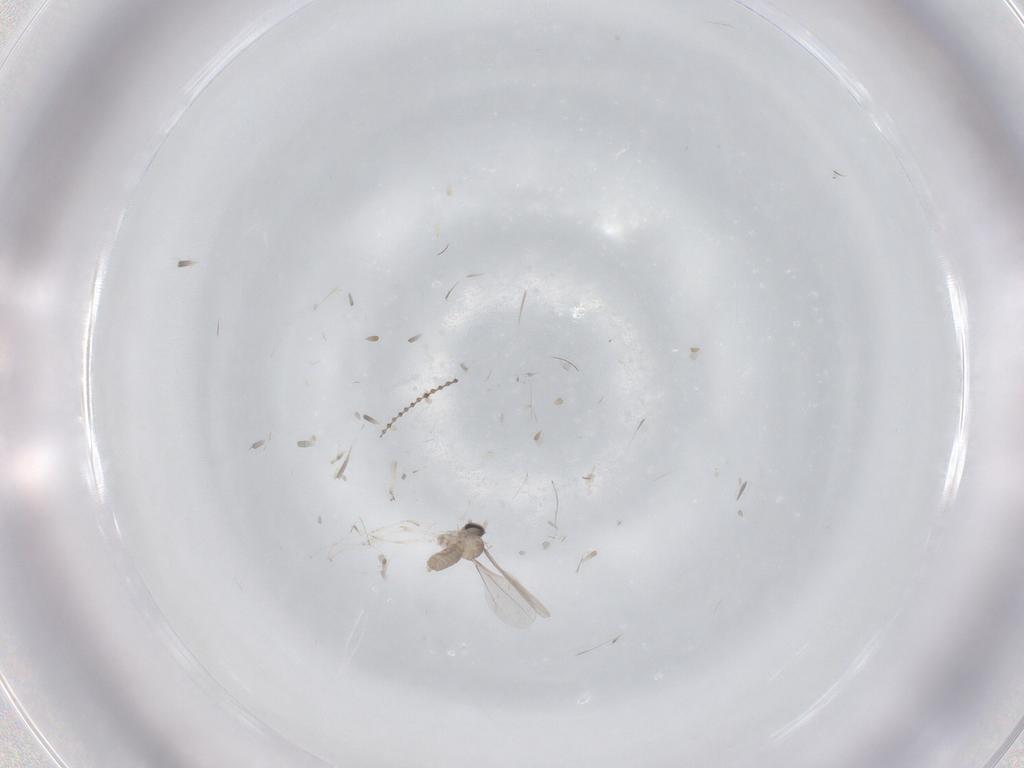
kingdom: Animalia
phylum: Arthropoda
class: Insecta
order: Diptera
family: Cecidomyiidae
